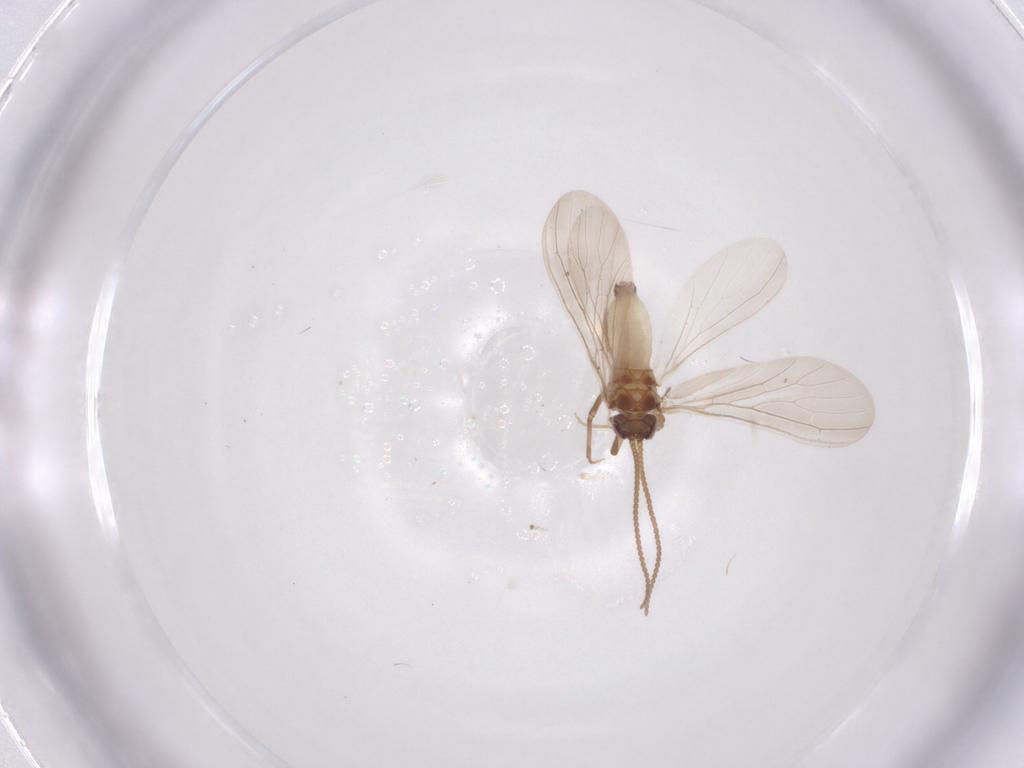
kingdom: Animalia
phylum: Arthropoda
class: Insecta
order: Neuroptera
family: Coniopterygidae
